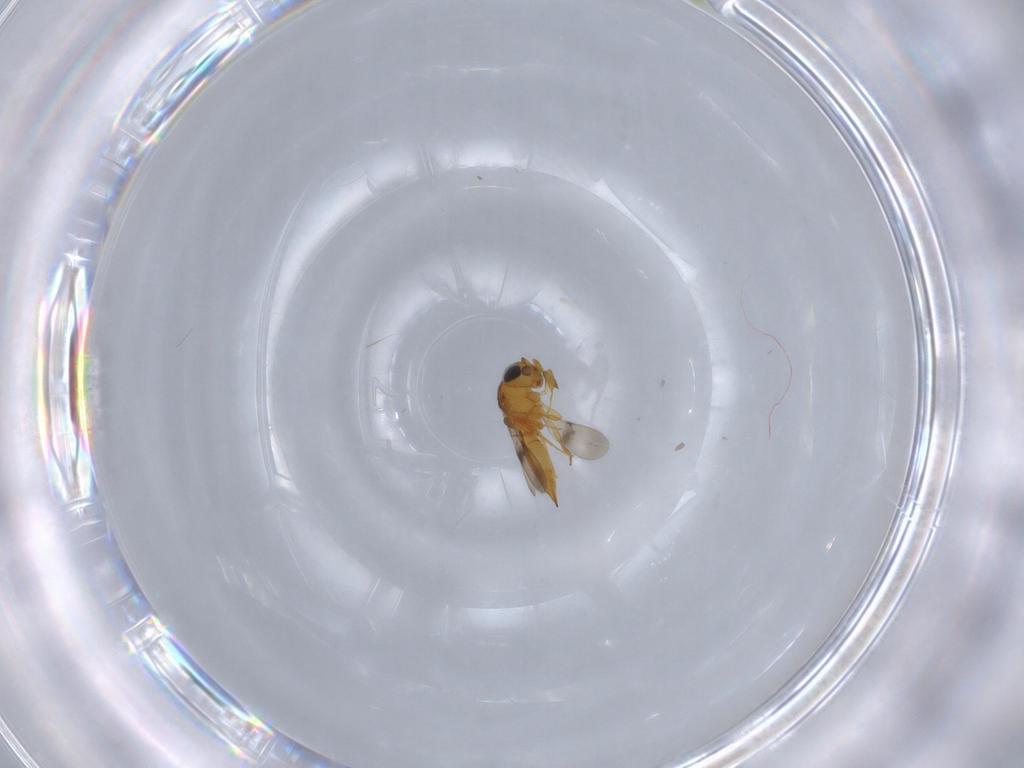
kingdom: Animalia
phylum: Arthropoda
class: Insecta
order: Hymenoptera
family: Scelionidae
